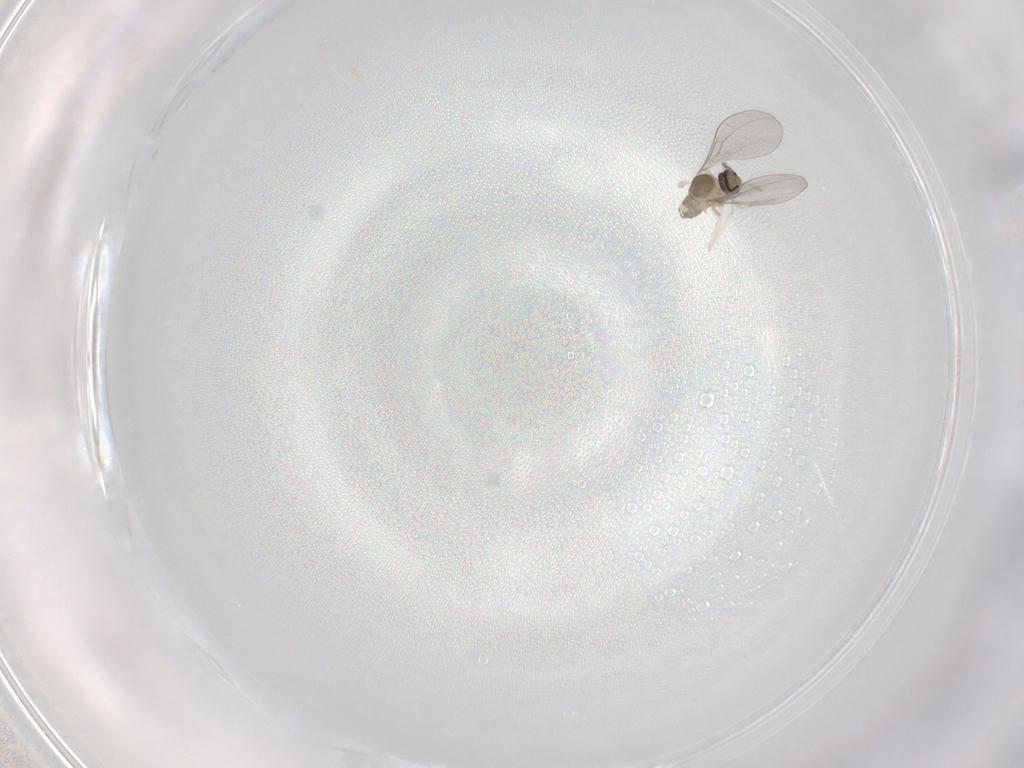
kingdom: Animalia
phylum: Arthropoda
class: Insecta
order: Diptera
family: Cecidomyiidae
